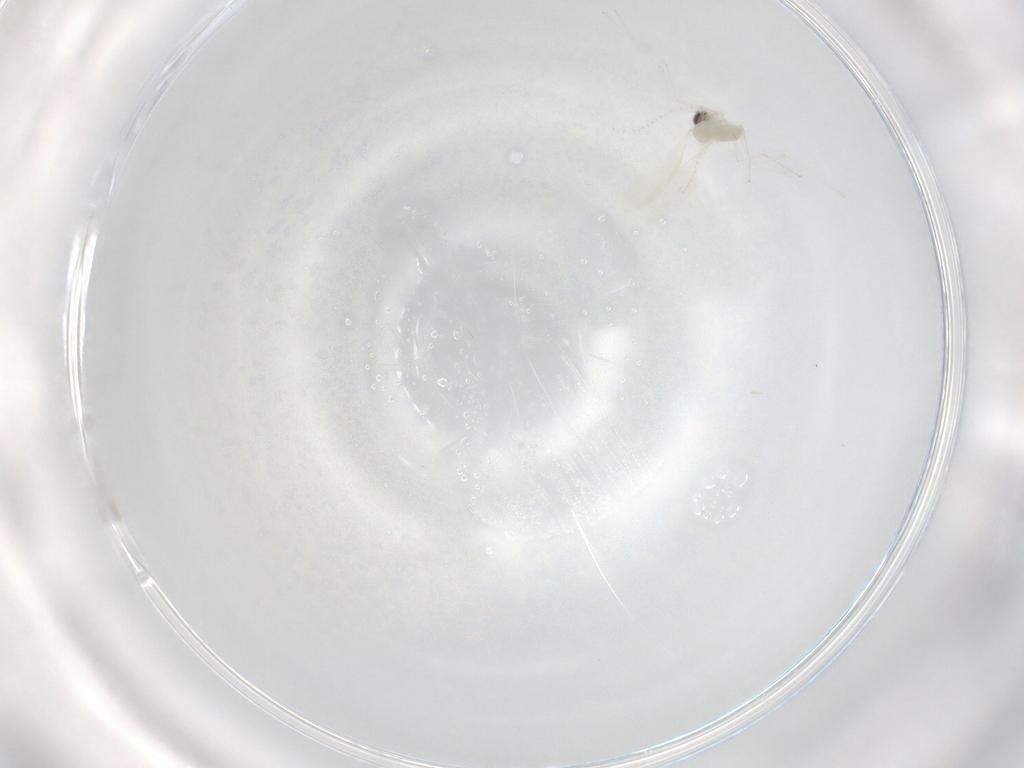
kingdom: Animalia
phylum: Arthropoda
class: Insecta
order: Diptera
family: Cecidomyiidae
